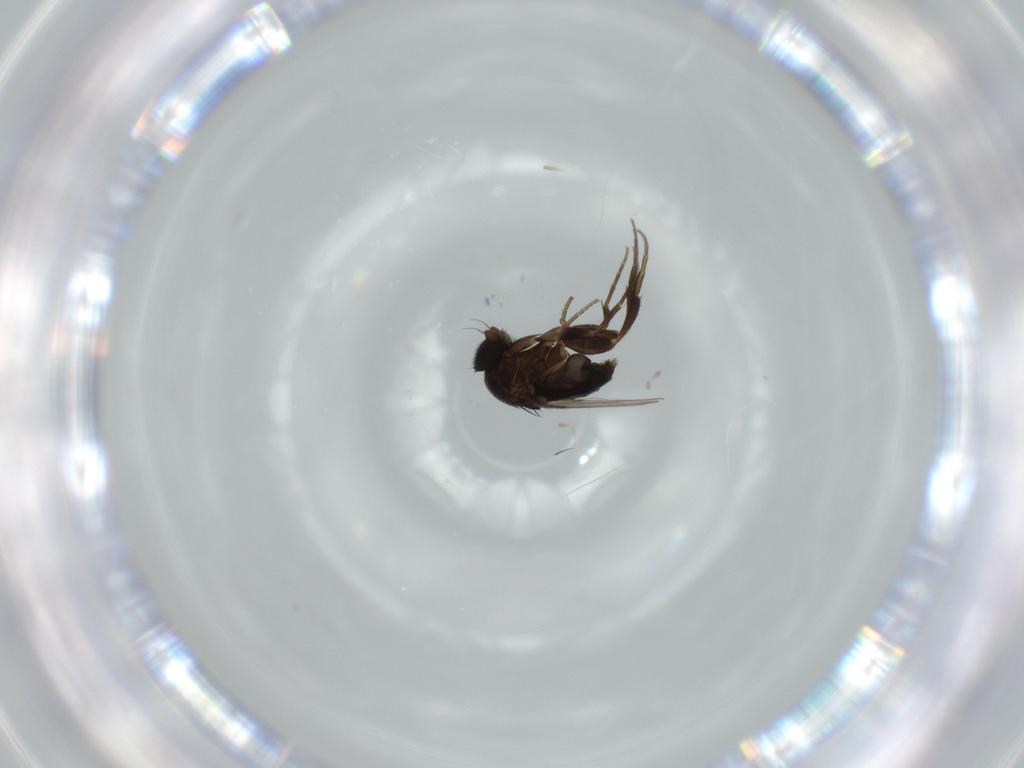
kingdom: Animalia
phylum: Arthropoda
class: Insecta
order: Diptera
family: Phoridae
